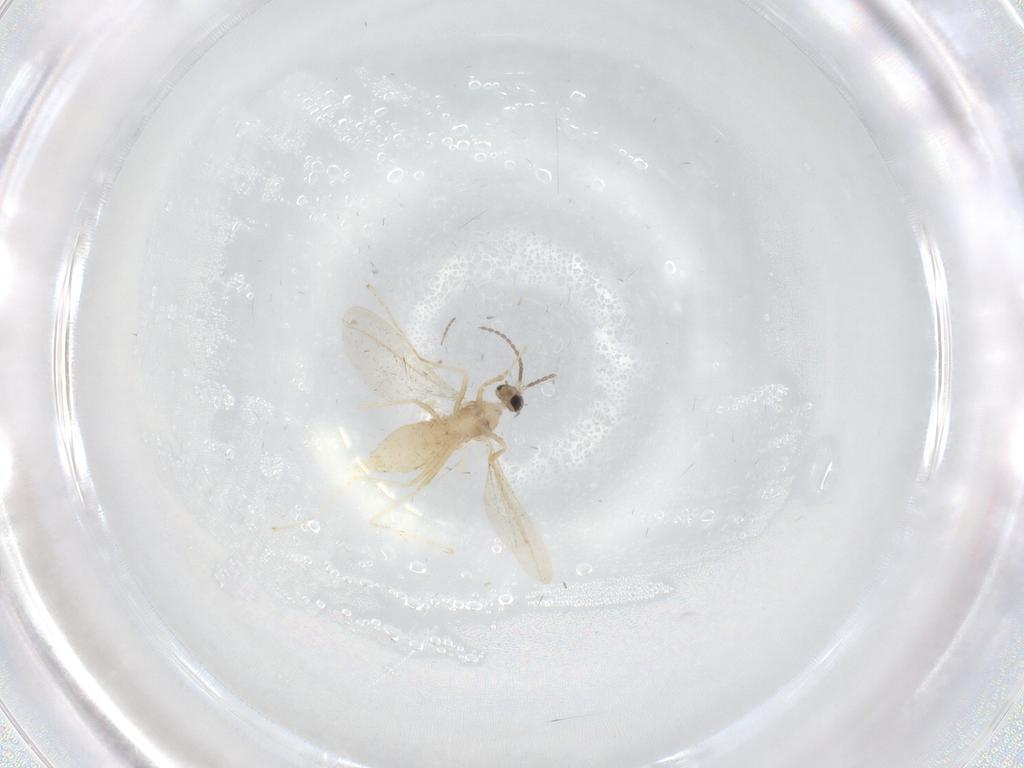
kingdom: Animalia
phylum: Arthropoda
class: Insecta
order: Diptera
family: Cecidomyiidae
